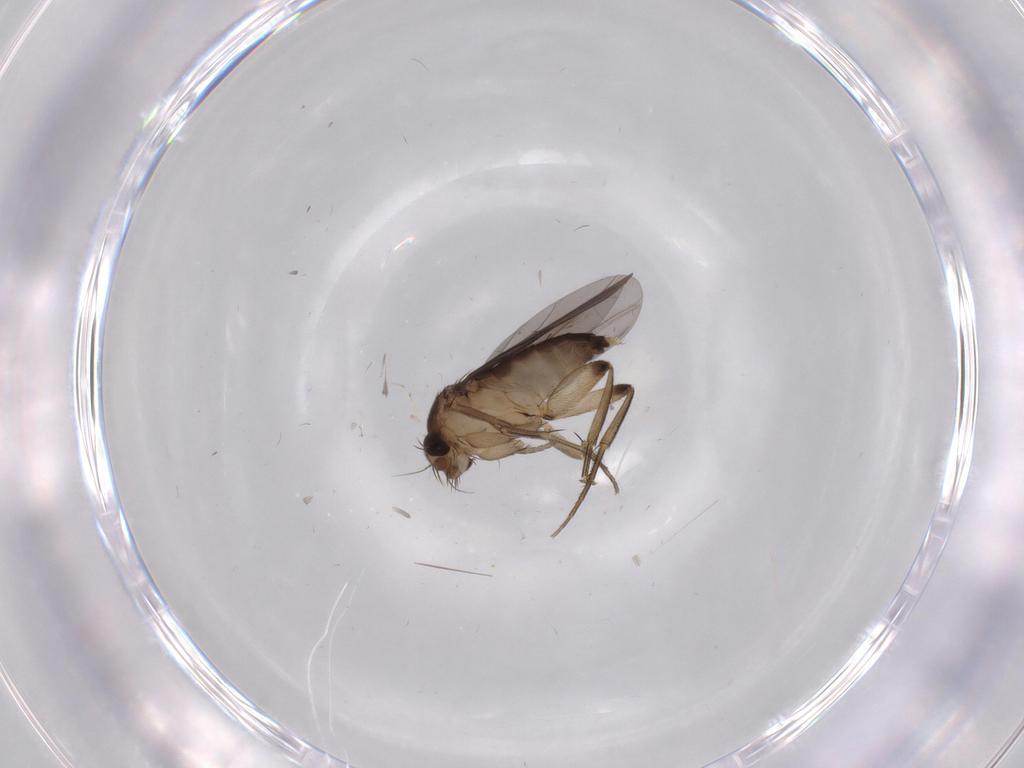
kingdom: Animalia
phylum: Arthropoda
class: Insecta
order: Diptera
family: Phoridae
